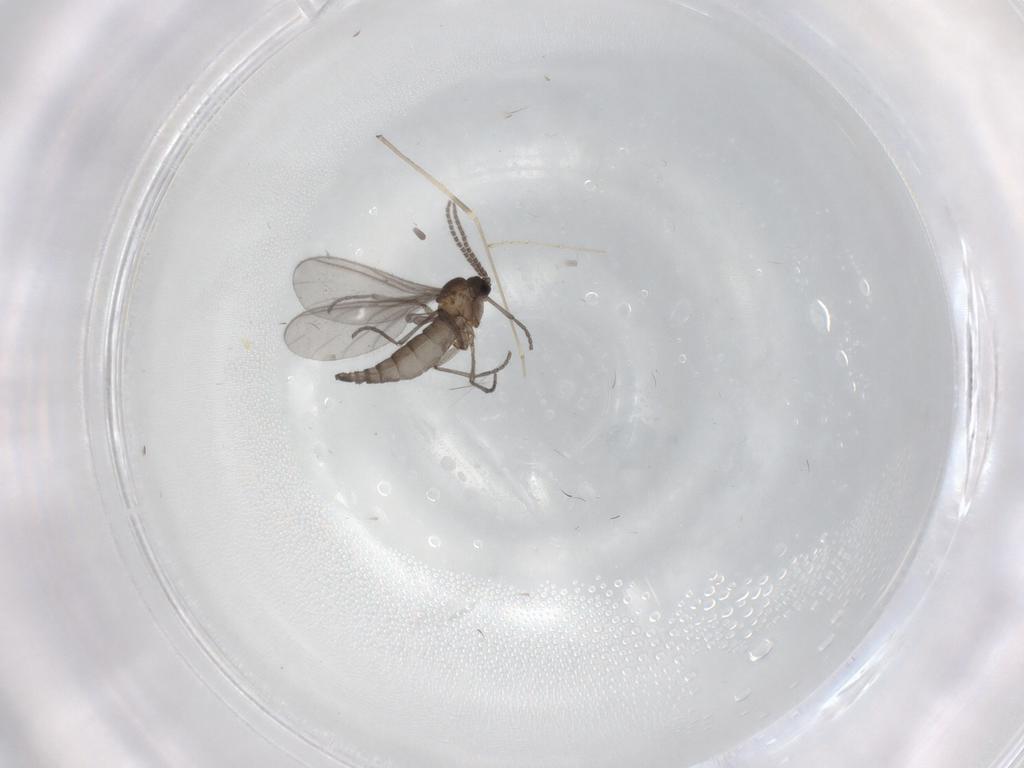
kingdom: Animalia
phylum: Arthropoda
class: Insecta
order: Diptera
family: Sciaridae
